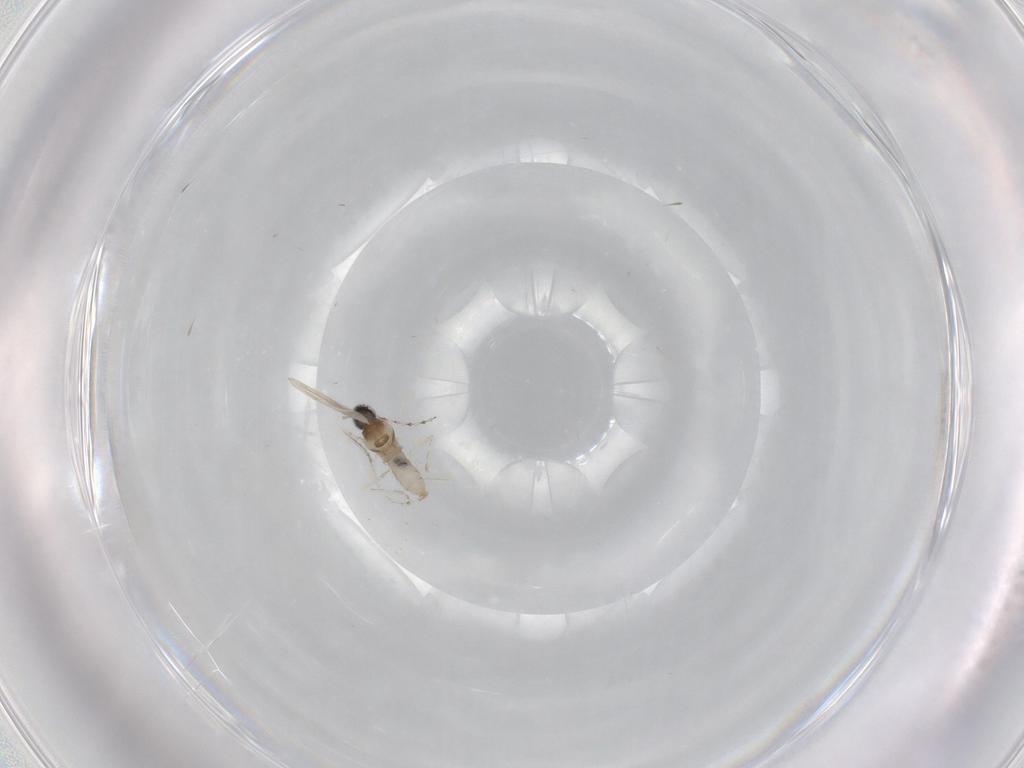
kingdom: Animalia
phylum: Arthropoda
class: Insecta
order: Diptera
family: Cecidomyiidae
